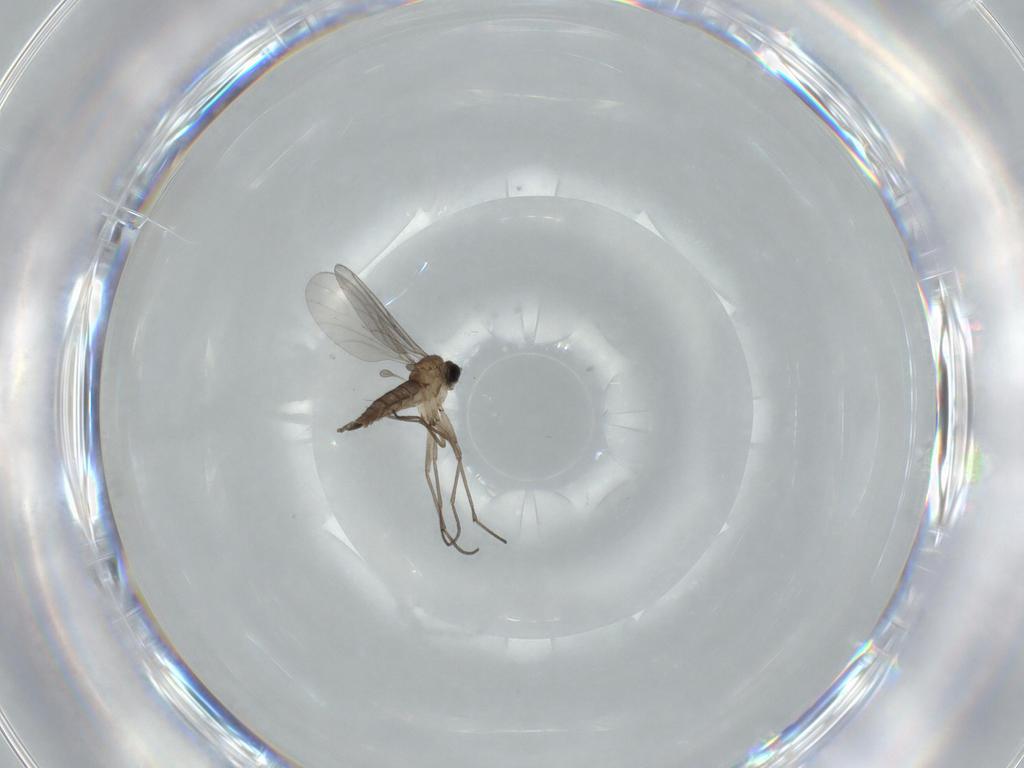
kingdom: Animalia
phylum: Arthropoda
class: Insecta
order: Diptera
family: Sciaridae
